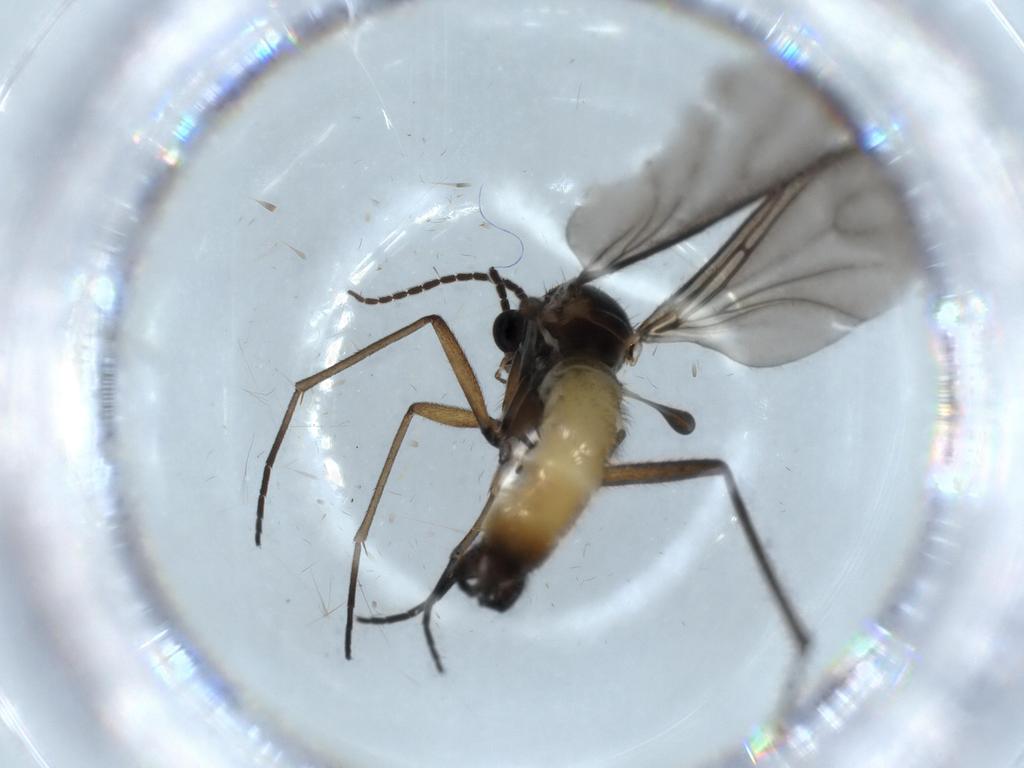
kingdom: Animalia
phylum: Arthropoda
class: Insecta
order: Diptera
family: Sciaridae
